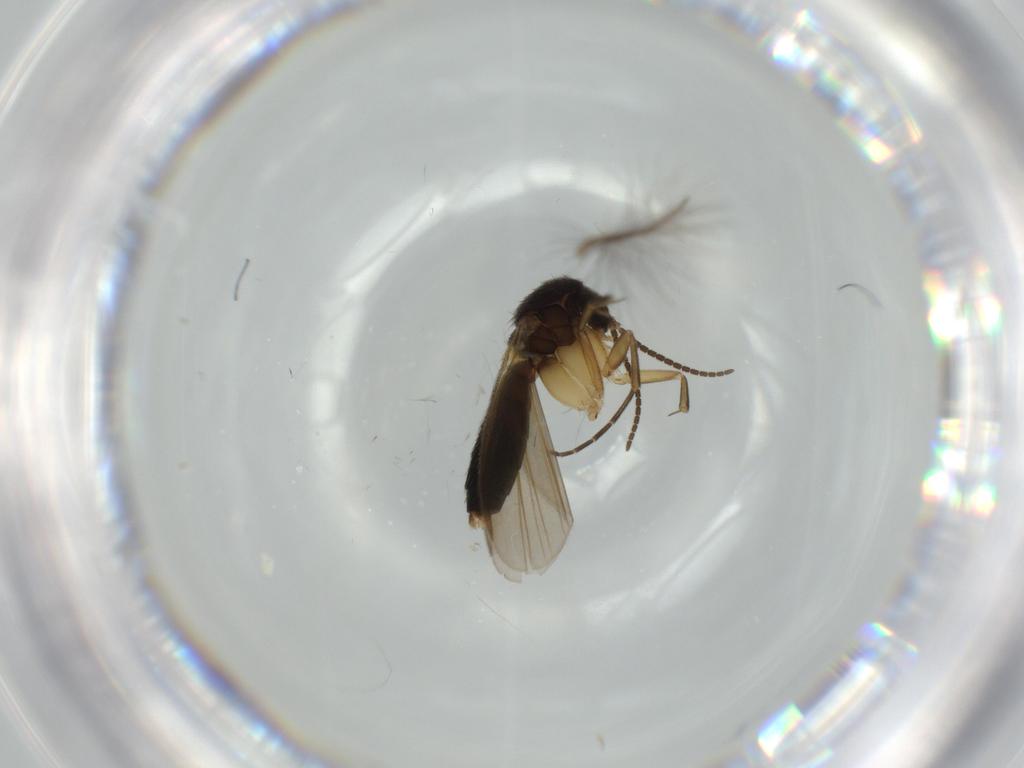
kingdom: Animalia
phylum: Arthropoda
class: Insecta
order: Diptera
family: Mycetophilidae
